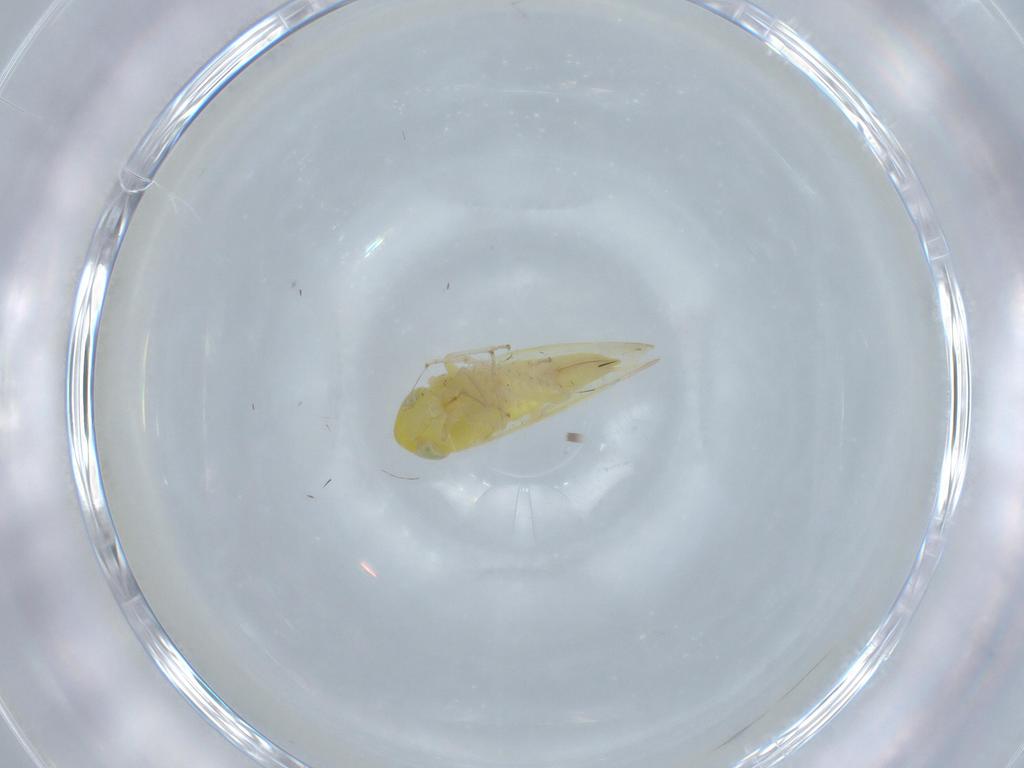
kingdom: Animalia
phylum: Arthropoda
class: Insecta
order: Hemiptera
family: Cicadellidae
